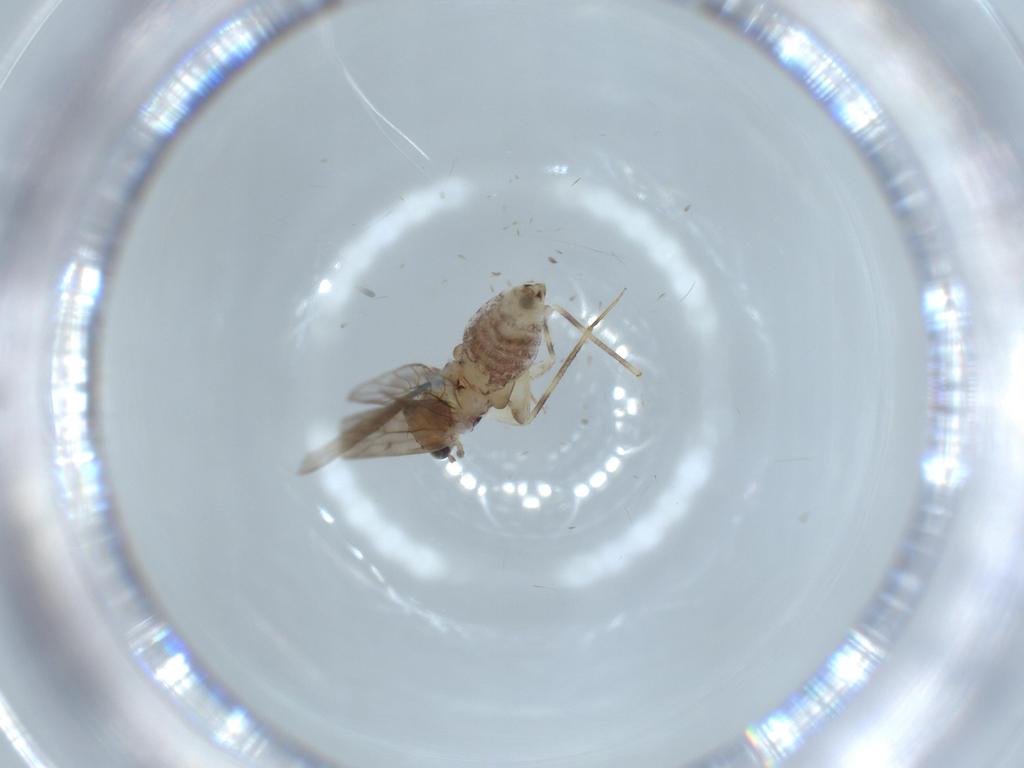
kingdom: Animalia
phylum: Arthropoda
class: Insecta
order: Psocodea
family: Lepidopsocidae
